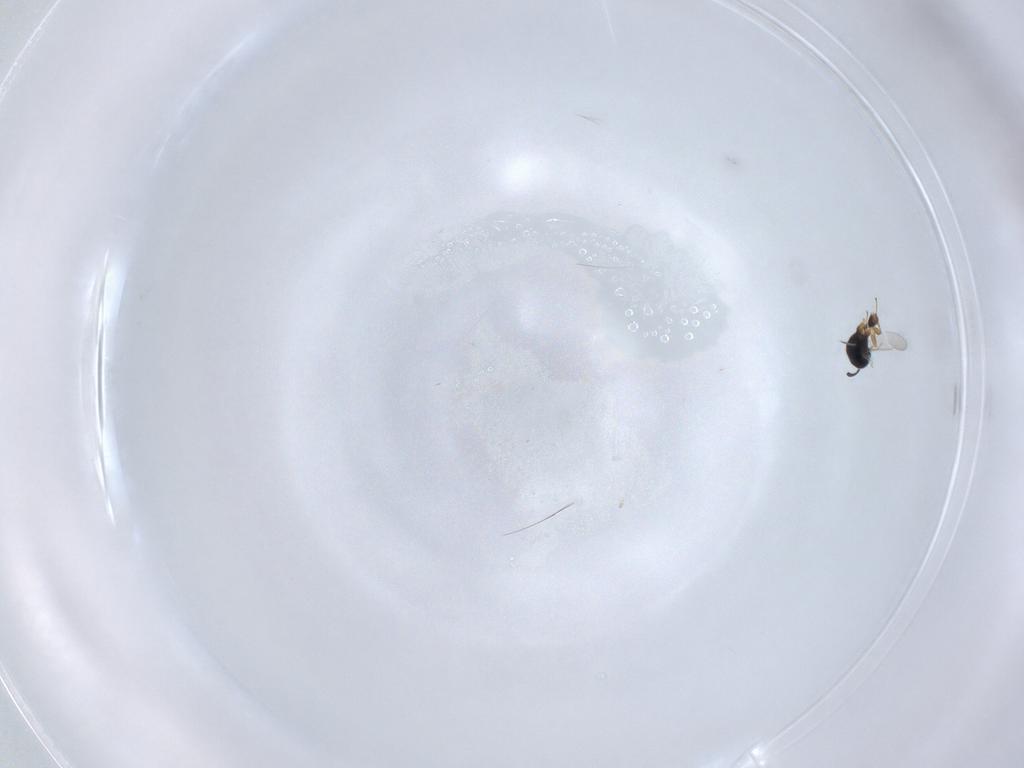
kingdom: Animalia
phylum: Arthropoda
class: Insecta
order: Hymenoptera
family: Scelionidae
